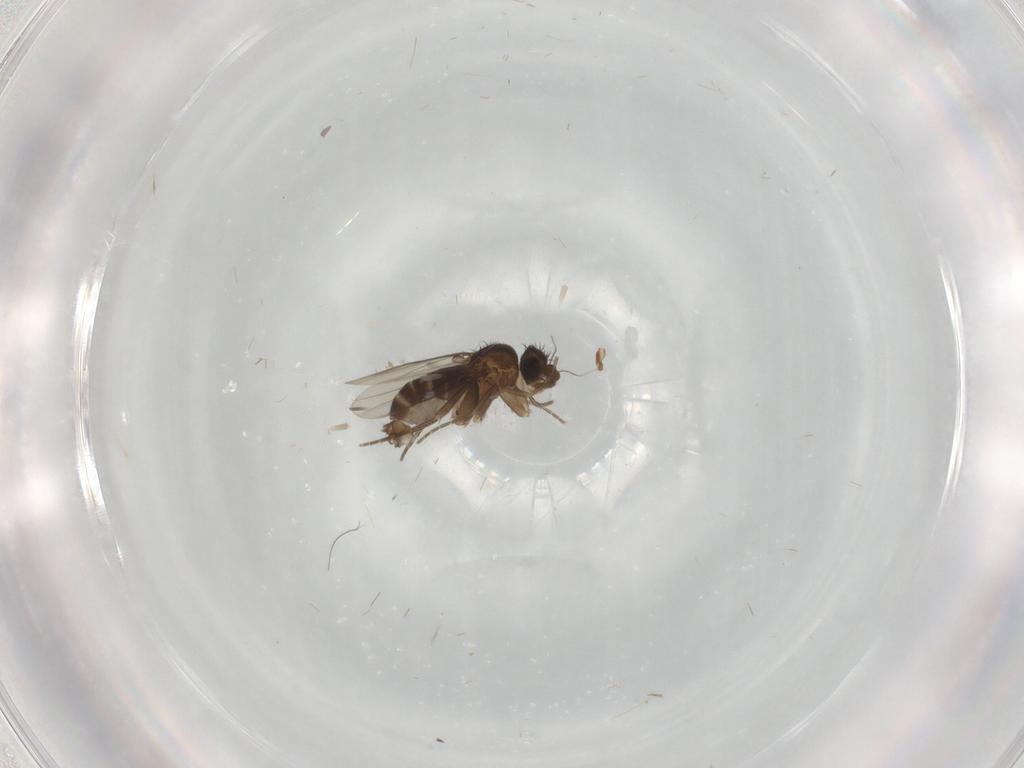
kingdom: Animalia
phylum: Arthropoda
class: Insecta
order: Diptera
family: Phoridae
